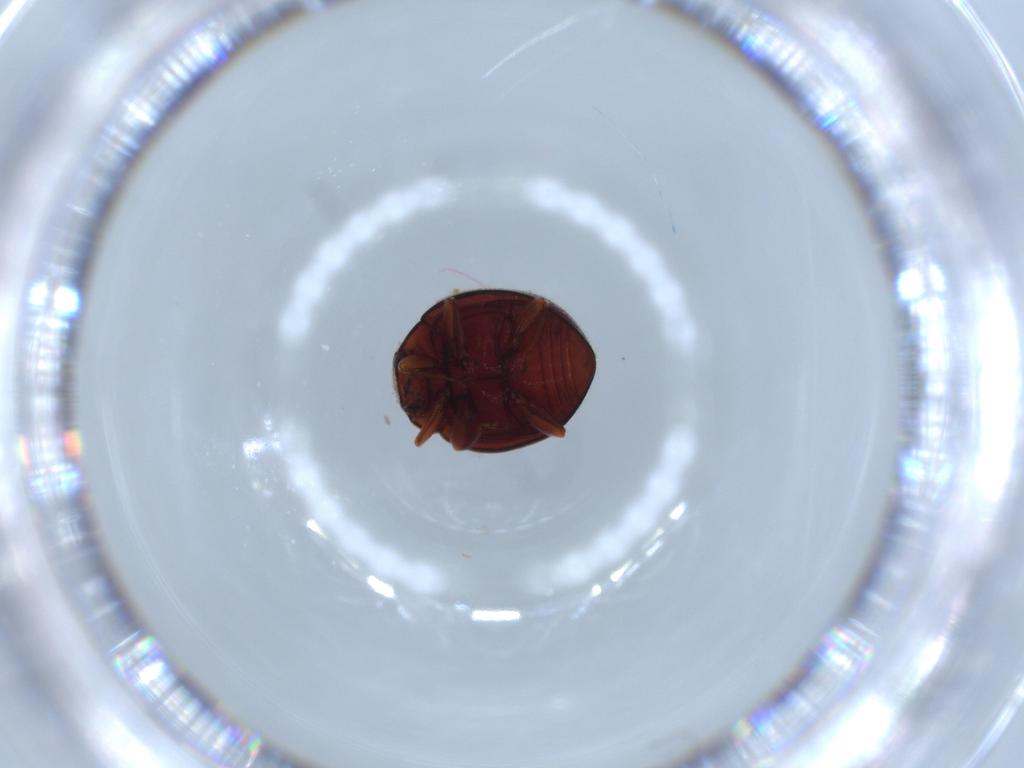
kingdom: Animalia
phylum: Arthropoda
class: Insecta
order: Coleoptera
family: Coccinellidae
